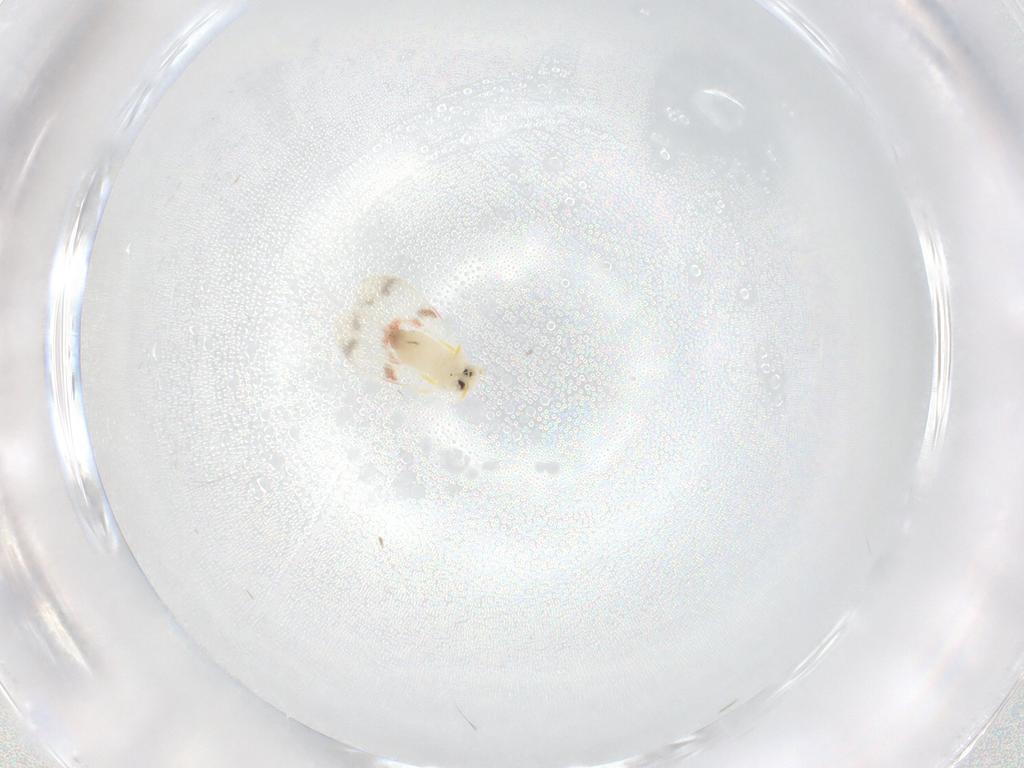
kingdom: Animalia
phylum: Arthropoda
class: Insecta
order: Hemiptera
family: Aleyrodidae
